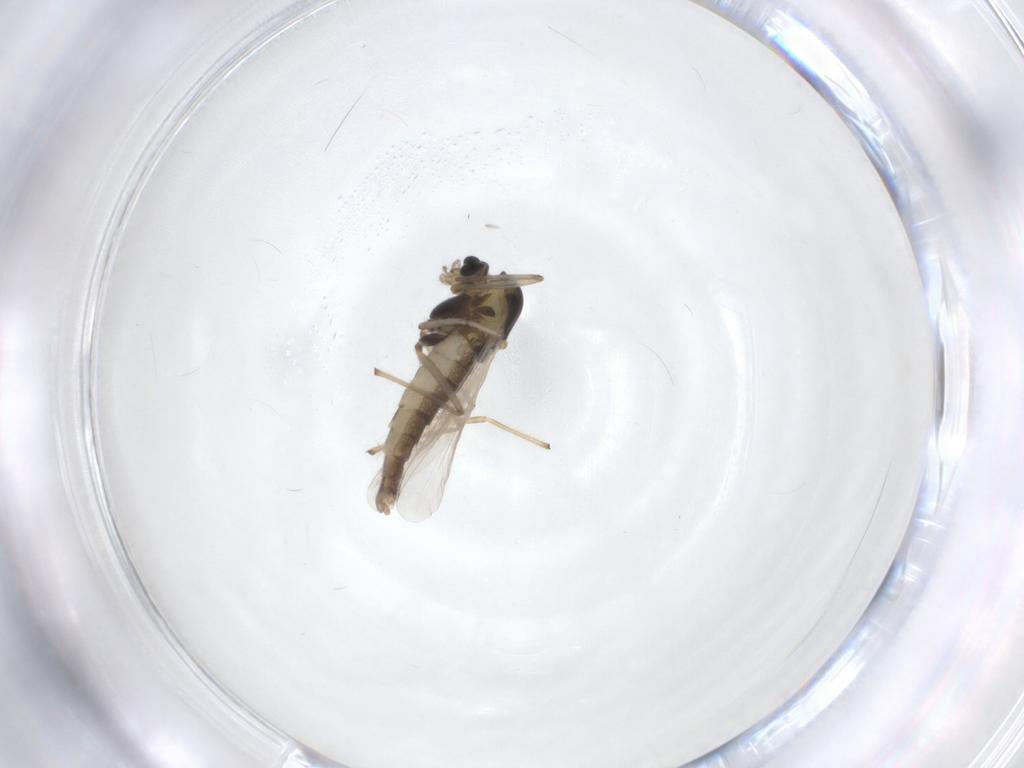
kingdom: Animalia
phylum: Arthropoda
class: Insecta
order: Diptera
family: Chironomidae
